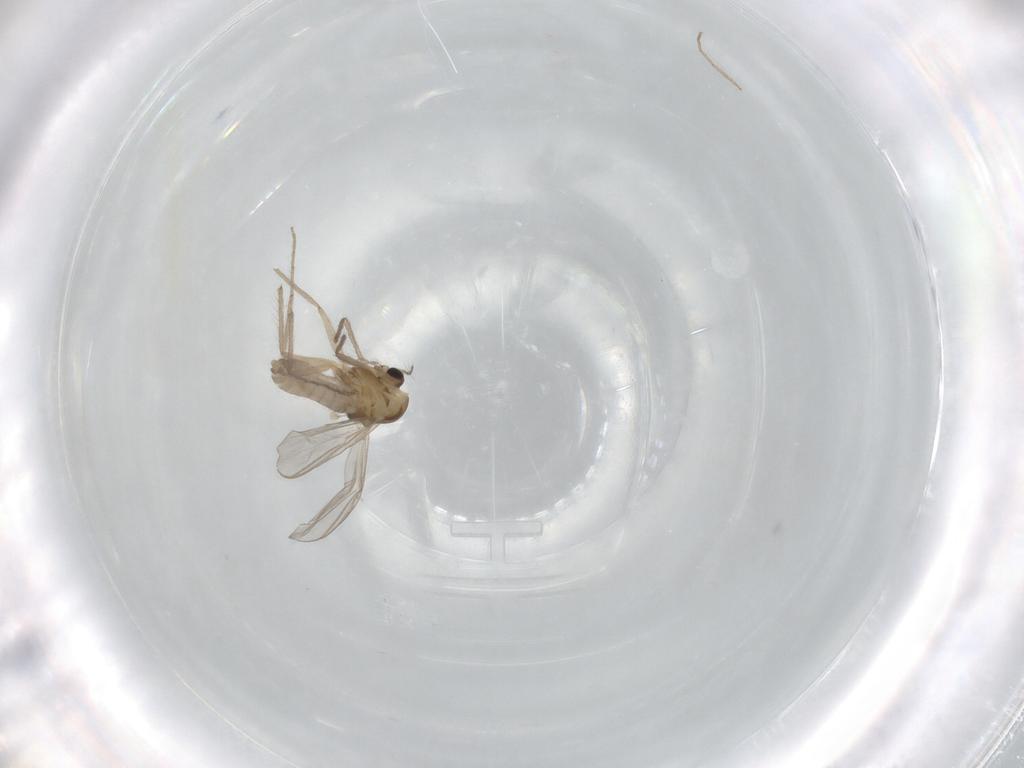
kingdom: Animalia
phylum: Arthropoda
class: Insecta
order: Diptera
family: Chironomidae
